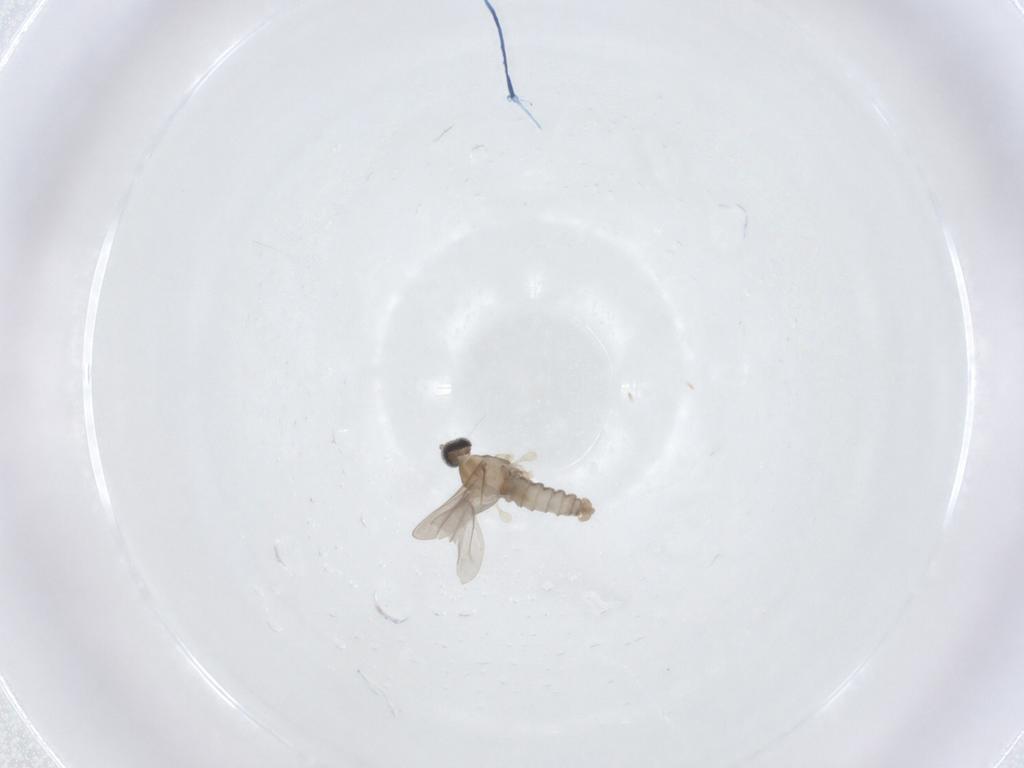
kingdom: Animalia
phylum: Arthropoda
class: Insecta
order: Diptera
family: Cecidomyiidae
